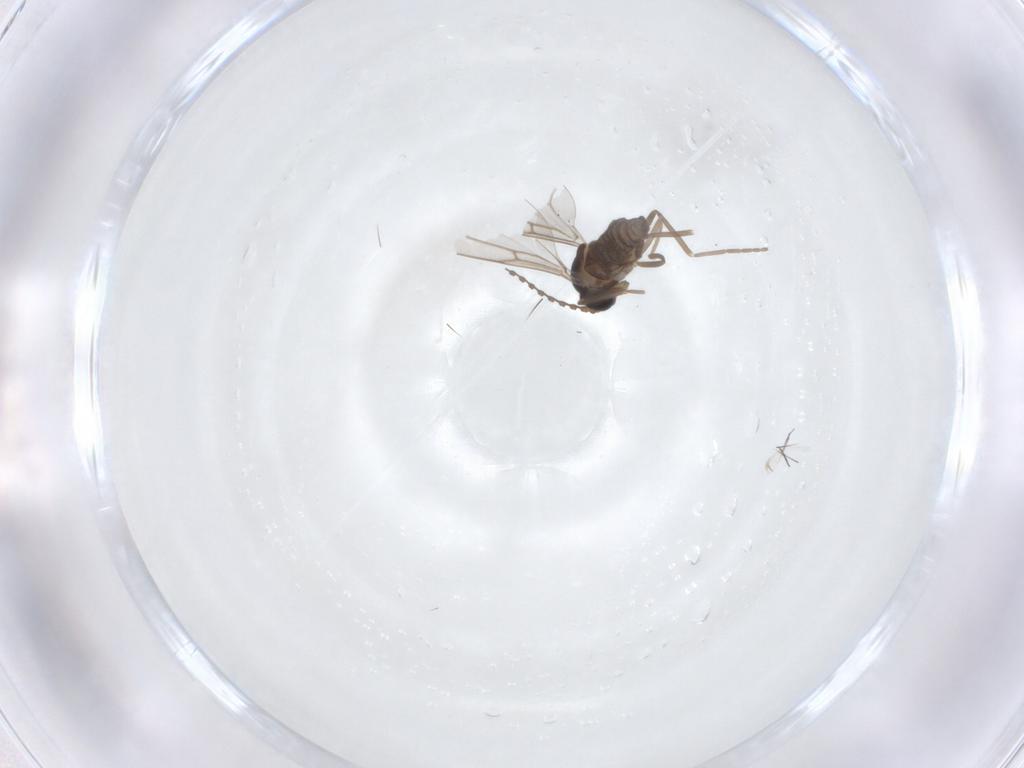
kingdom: Animalia
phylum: Arthropoda
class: Insecta
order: Diptera
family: Cecidomyiidae
